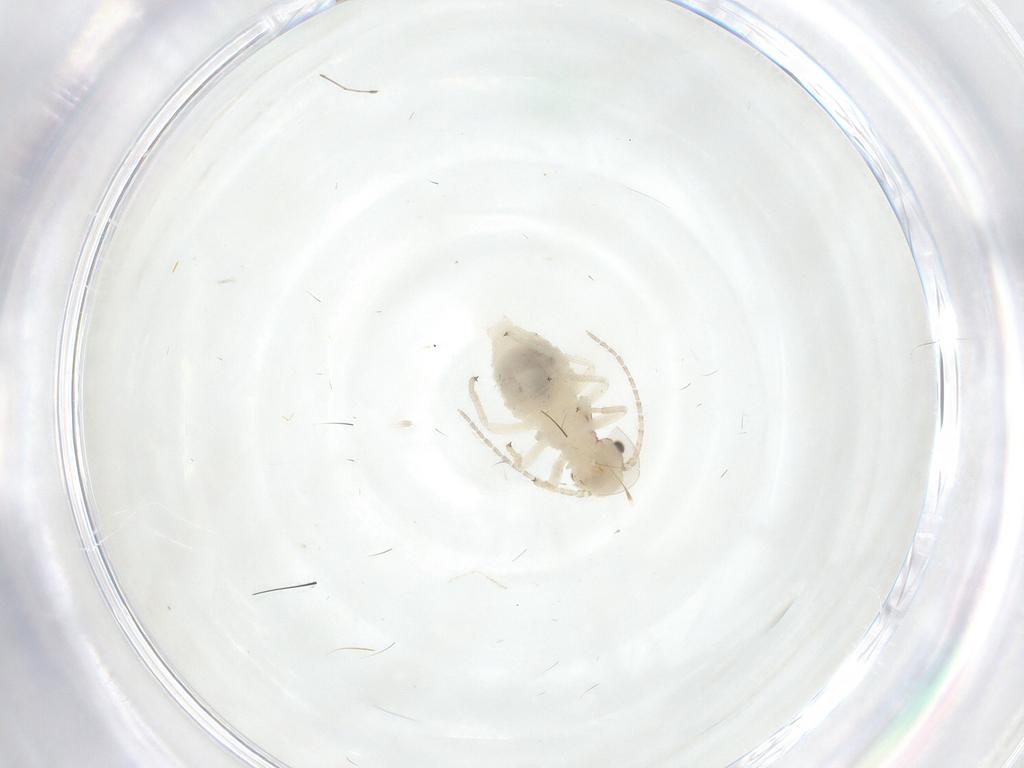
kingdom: Animalia
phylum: Arthropoda
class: Insecta
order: Psocodea
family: Amphipsocidae
